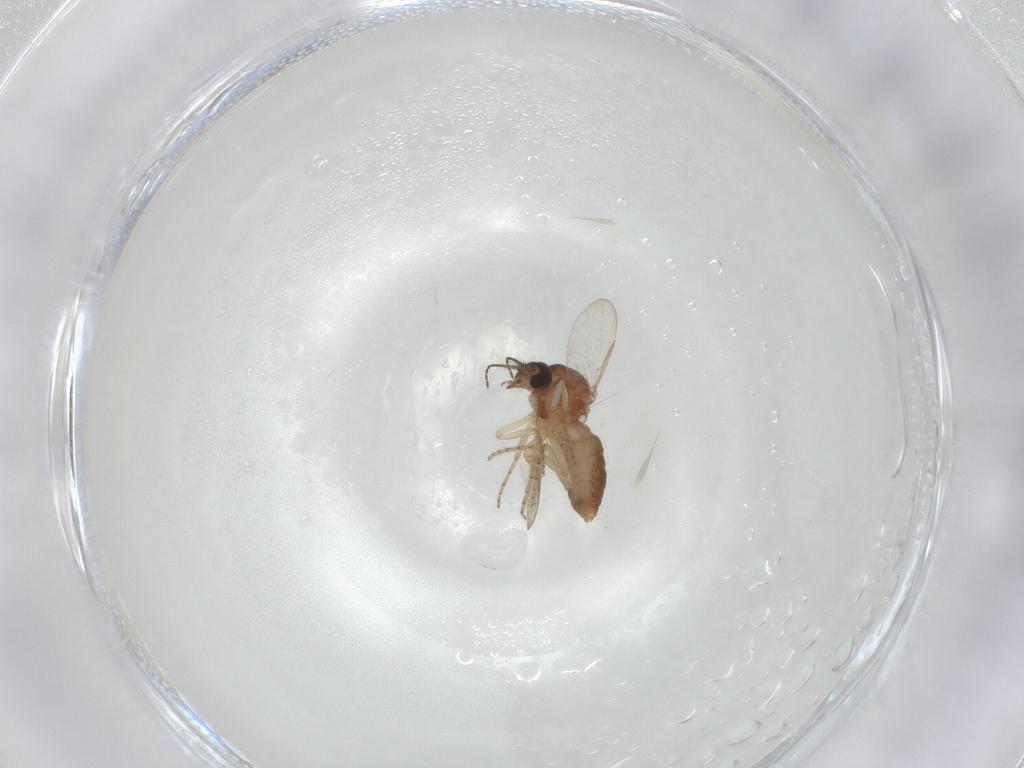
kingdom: Animalia
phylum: Arthropoda
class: Insecta
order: Diptera
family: Ceratopogonidae
